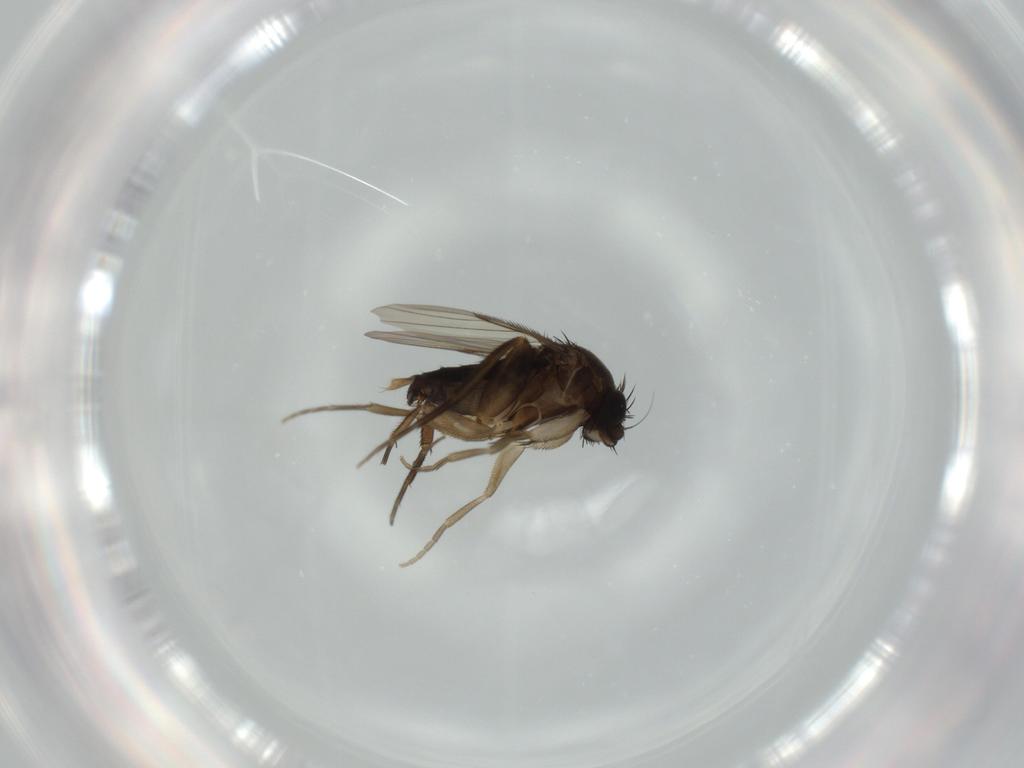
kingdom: Animalia
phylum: Arthropoda
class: Insecta
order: Diptera
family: Phoridae
